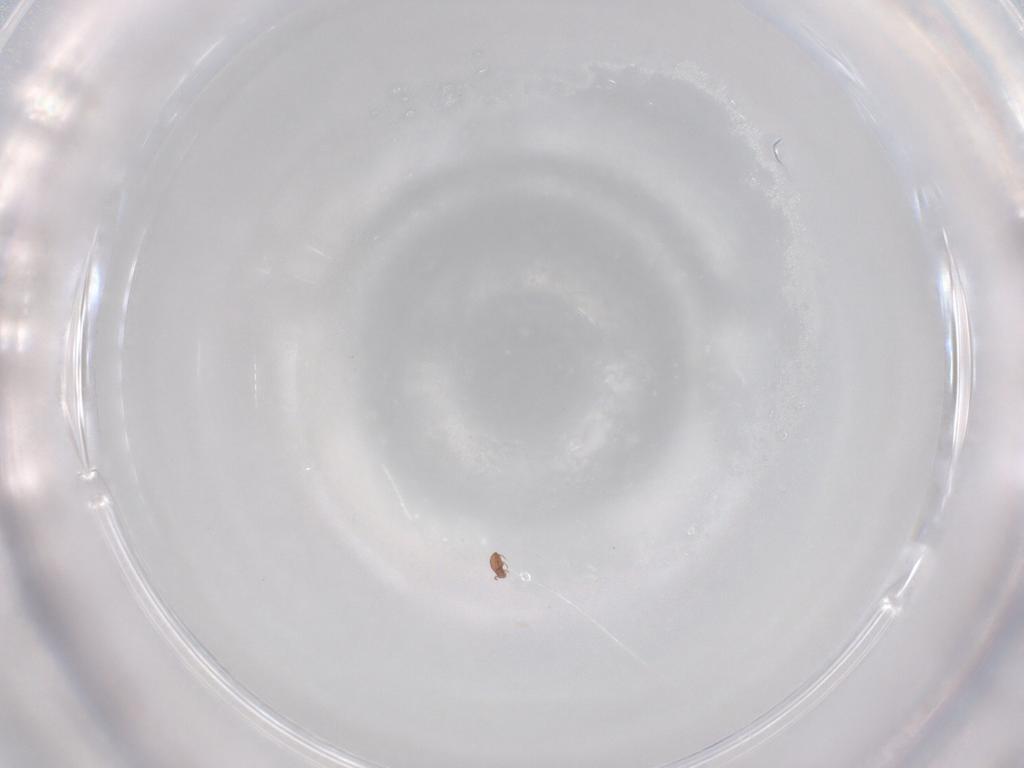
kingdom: Animalia
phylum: Arthropoda
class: Arachnida
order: Sarcoptiformes
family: Oppiidae
